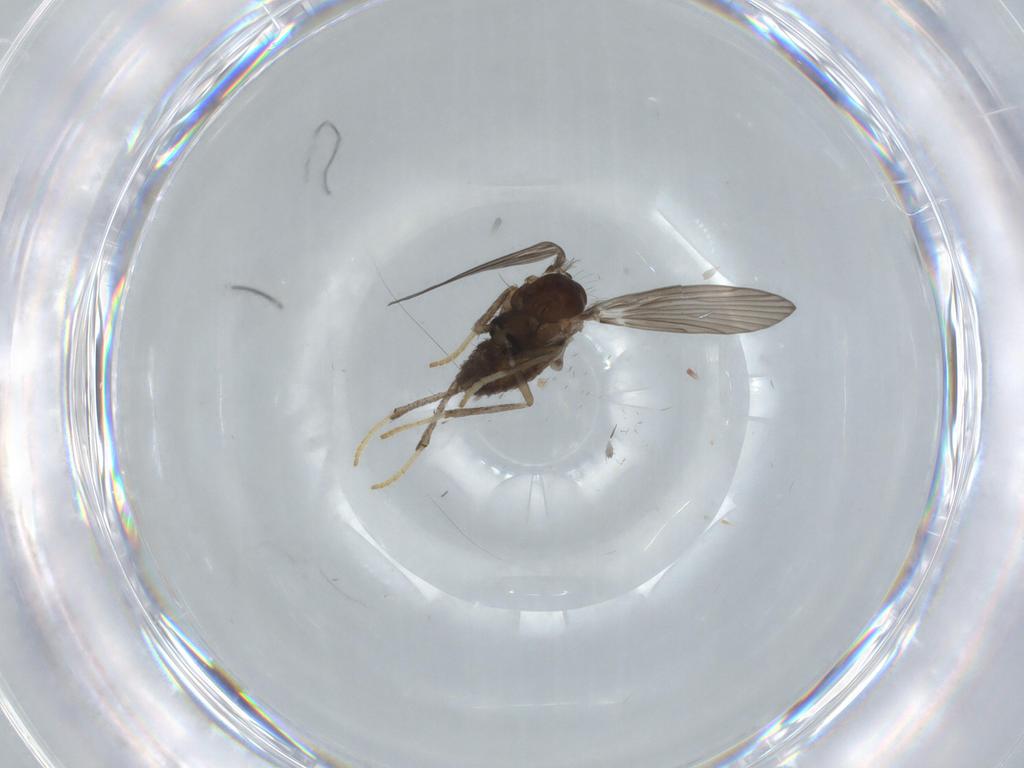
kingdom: Animalia
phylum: Arthropoda
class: Insecta
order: Diptera
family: Psychodidae
